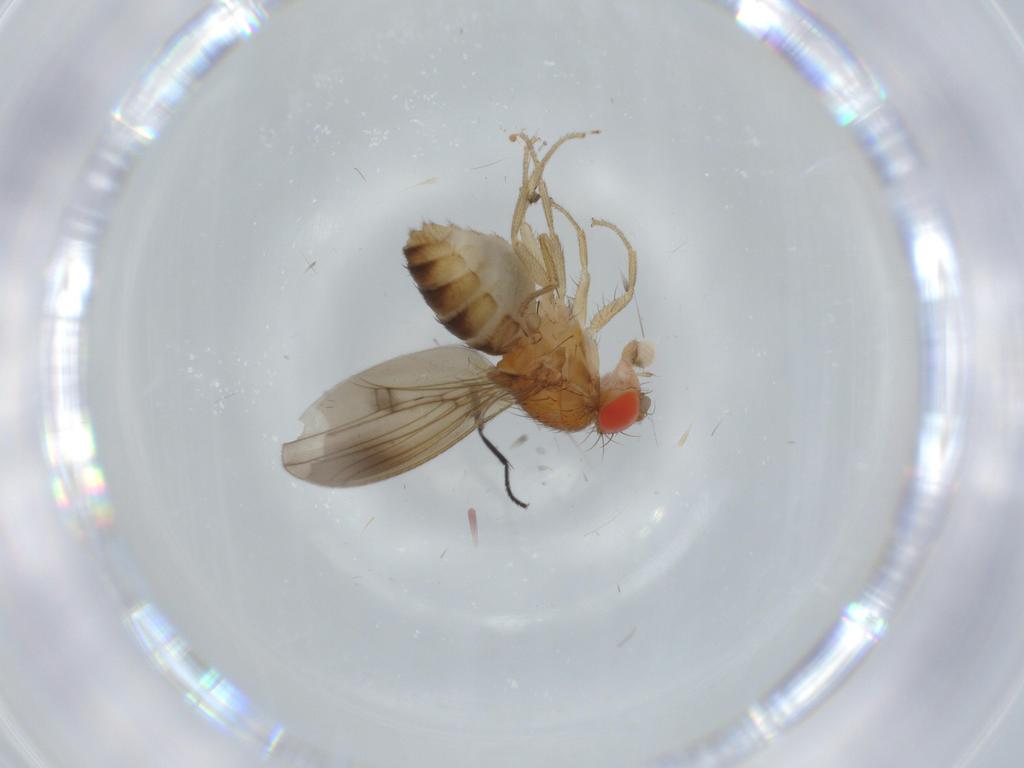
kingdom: Animalia
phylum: Arthropoda
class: Insecta
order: Diptera
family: Drosophilidae
